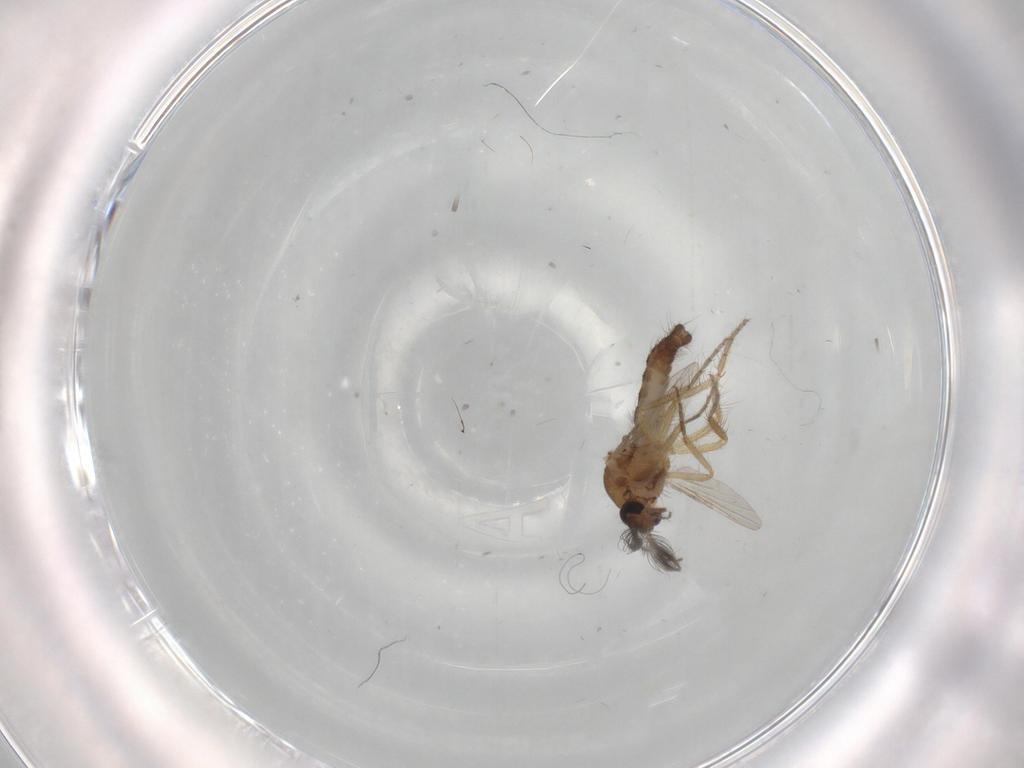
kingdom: Animalia
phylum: Arthropoda
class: Insecta
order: Diptera
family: Ceratopogonidae
